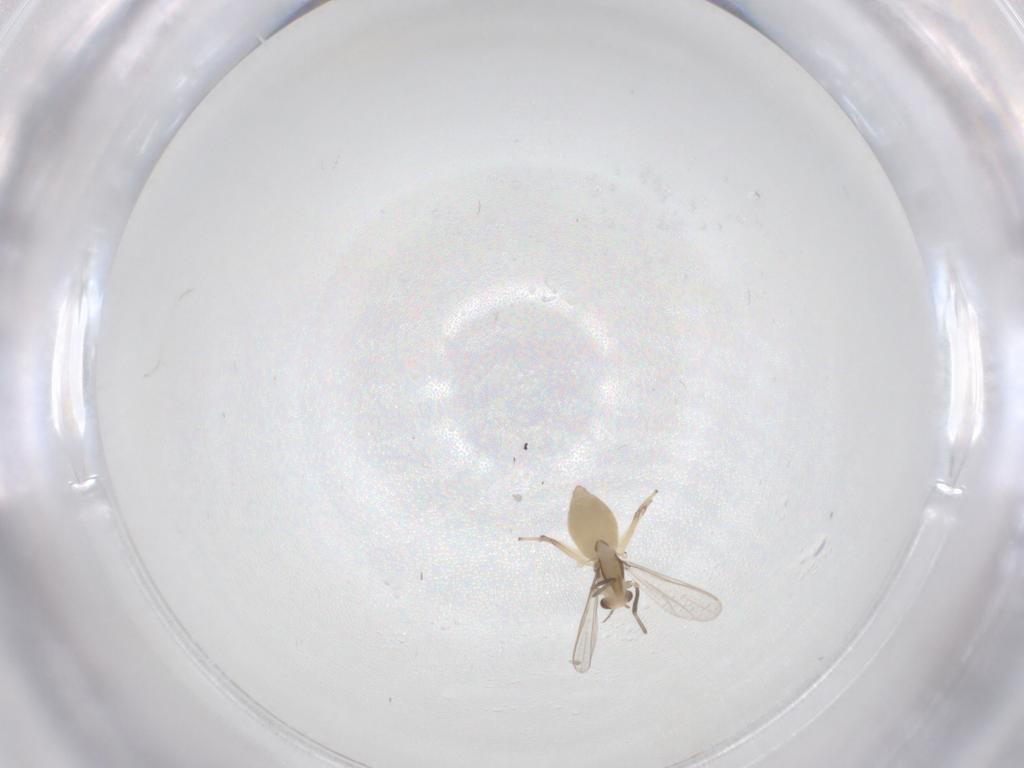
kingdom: Animalia
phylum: Arthropoda
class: Insecta
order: Diptera
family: Chironomidae
